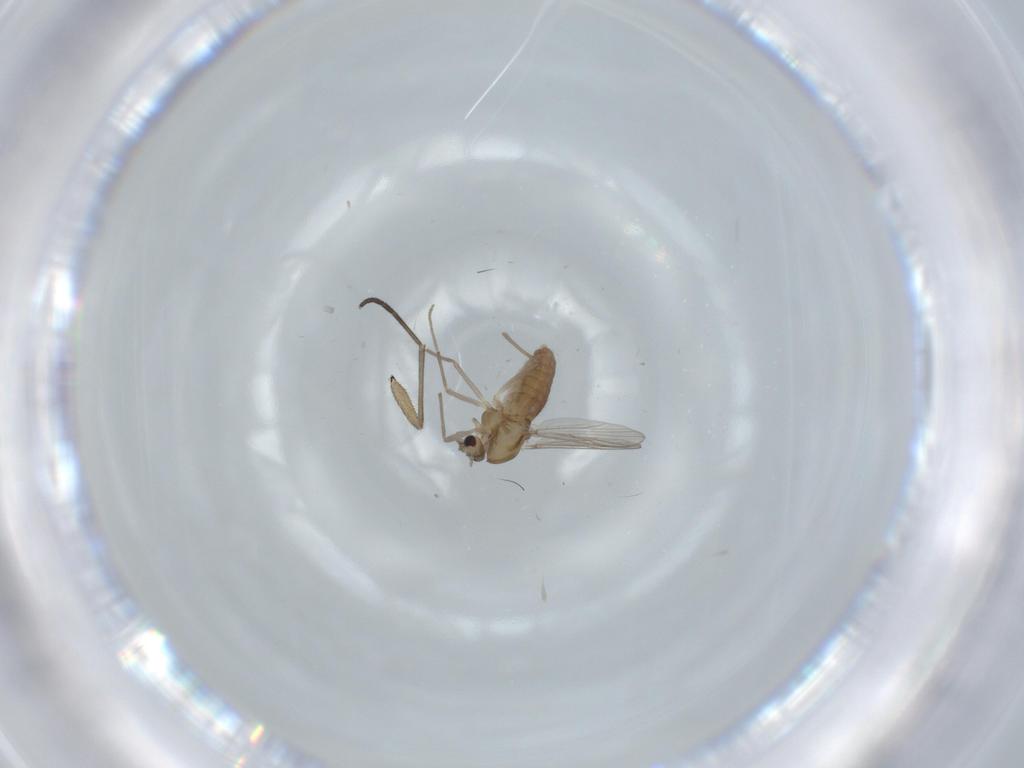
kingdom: Animalia
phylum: Arthropoda
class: Insecta
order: Diptera
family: Chironomidae
